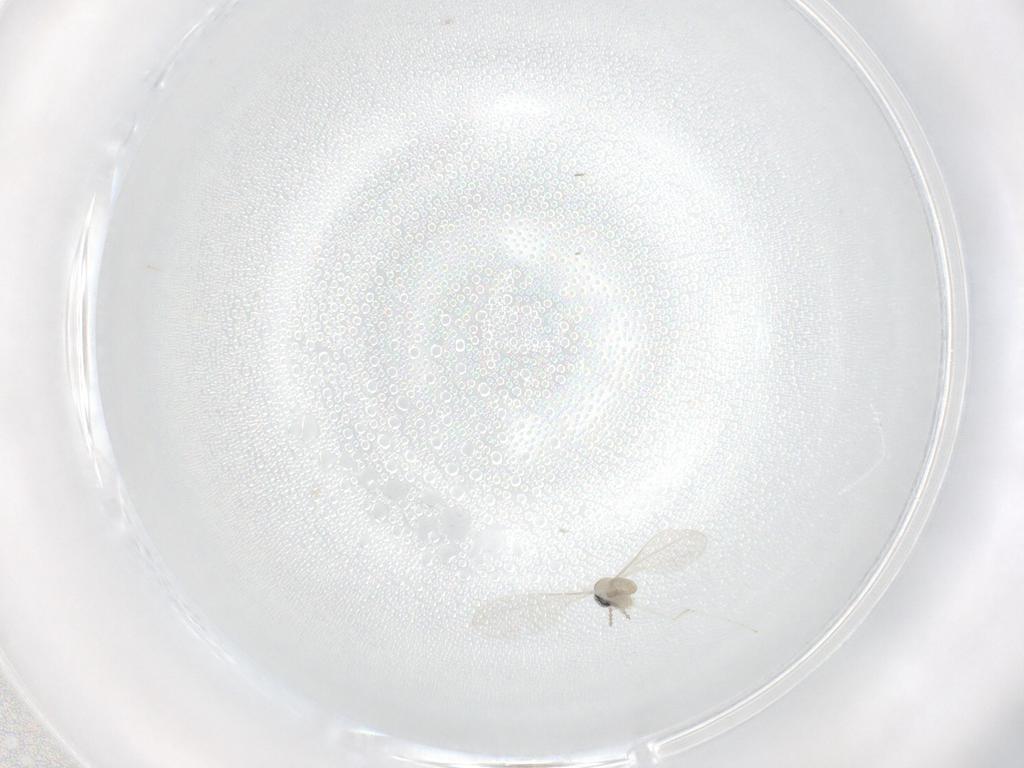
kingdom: Animalia
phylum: Arthropoda
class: Insecta
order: Diptera
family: Cecidomyiidae
